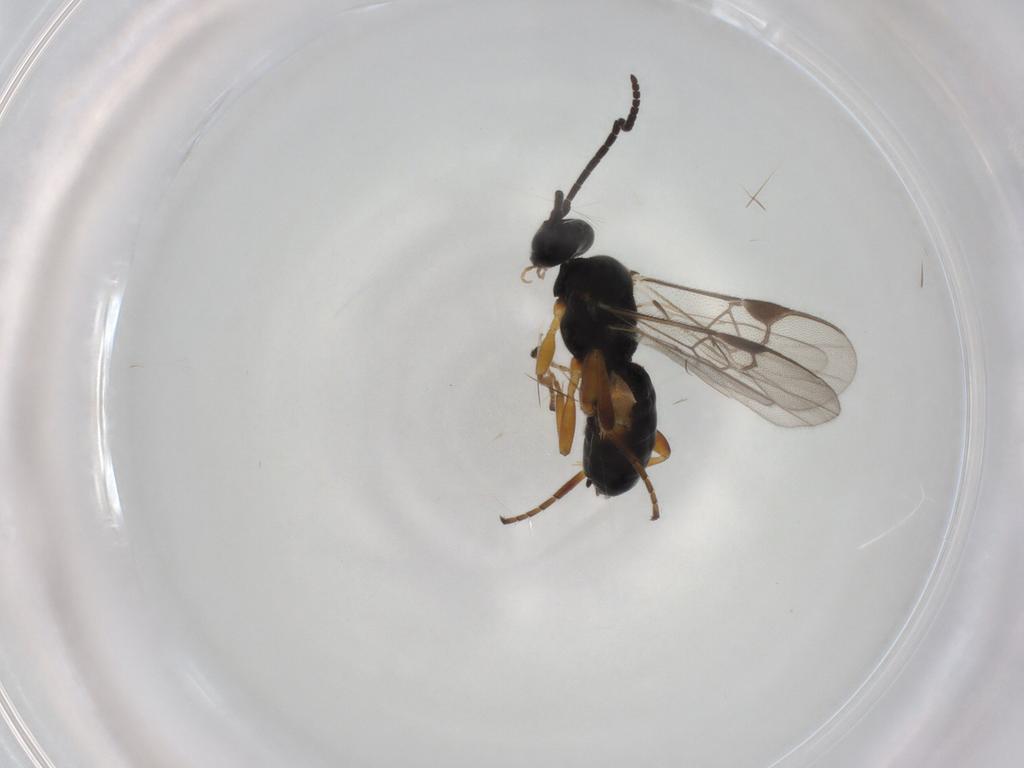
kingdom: Animalia
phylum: Arthropoda
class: Insecta
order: Hymenoptera
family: Braconidae
